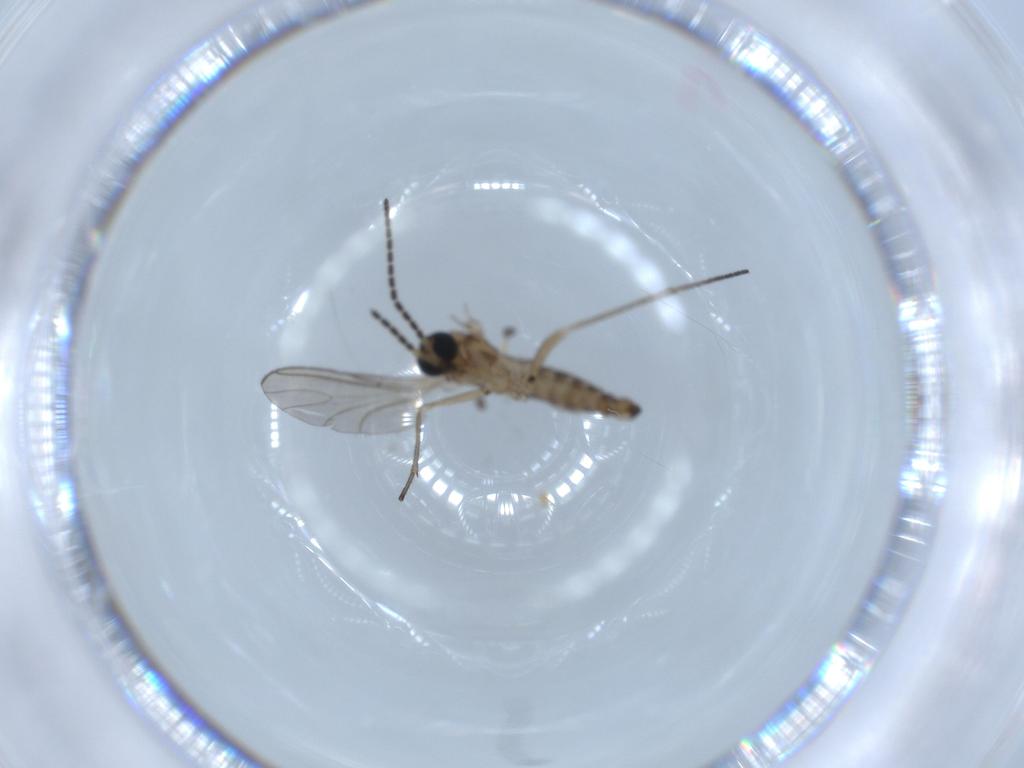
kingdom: Animalia
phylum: Arthropoda
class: Insecta
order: Diptera
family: Sciaridae
